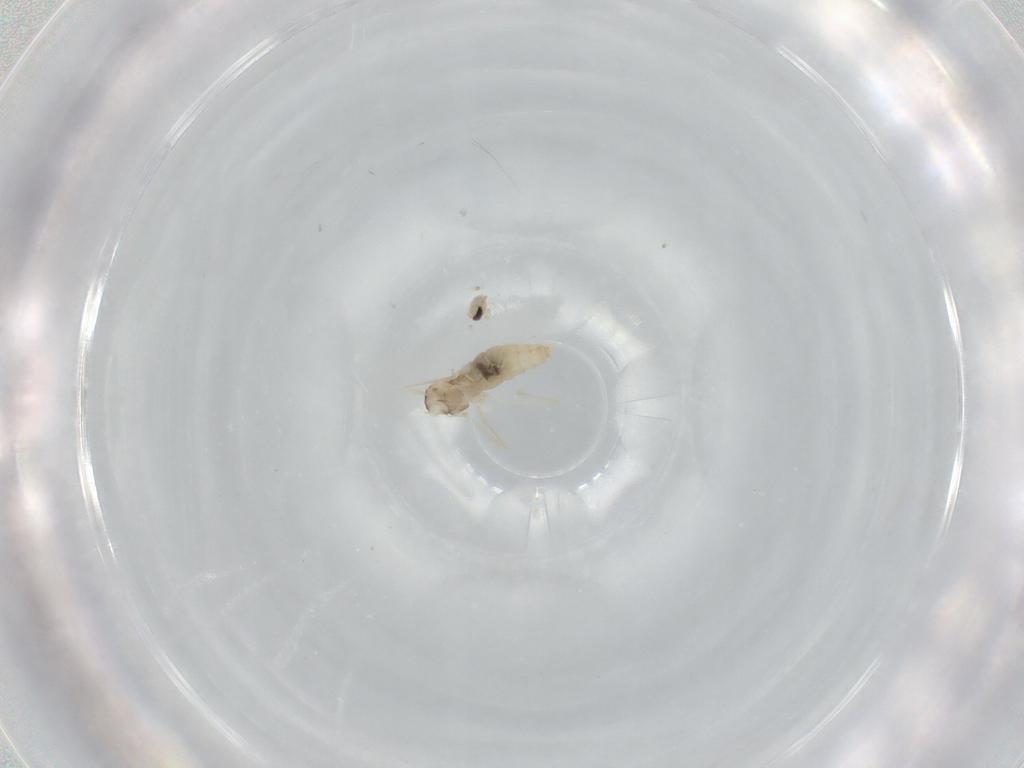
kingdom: Animalia
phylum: Arthropoda
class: Insecta
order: Diptera
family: Cecidomyiidae
